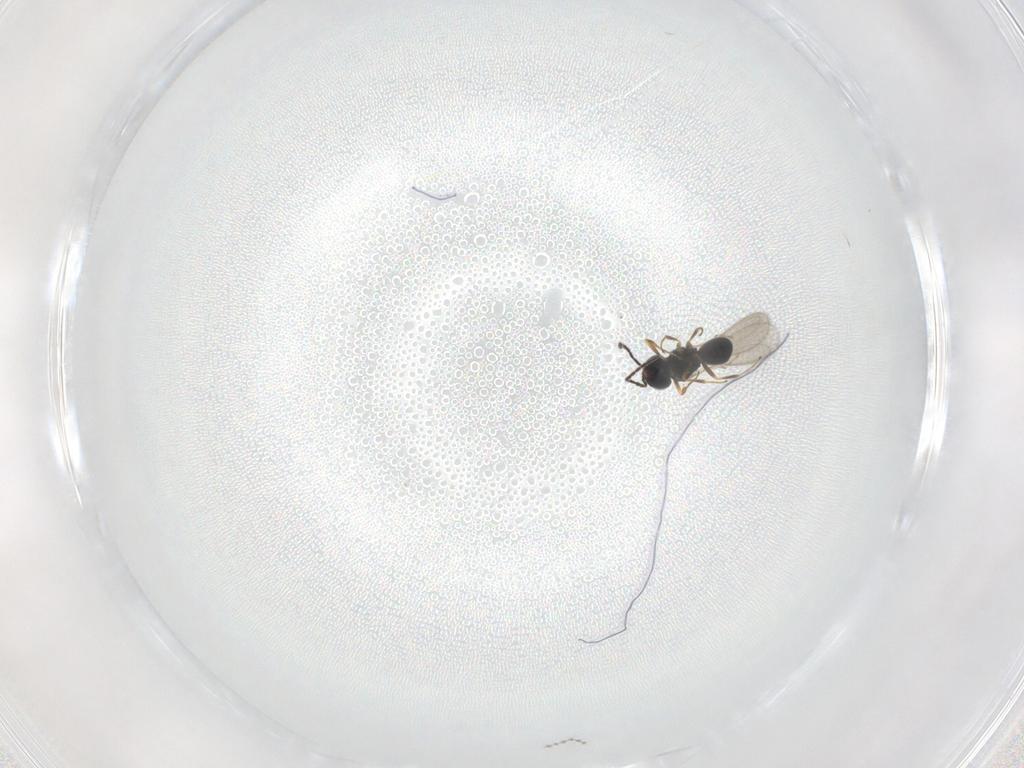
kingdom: Animalia
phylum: Arthropoda
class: Insecta
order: Hymenoptera
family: Scelionidae
